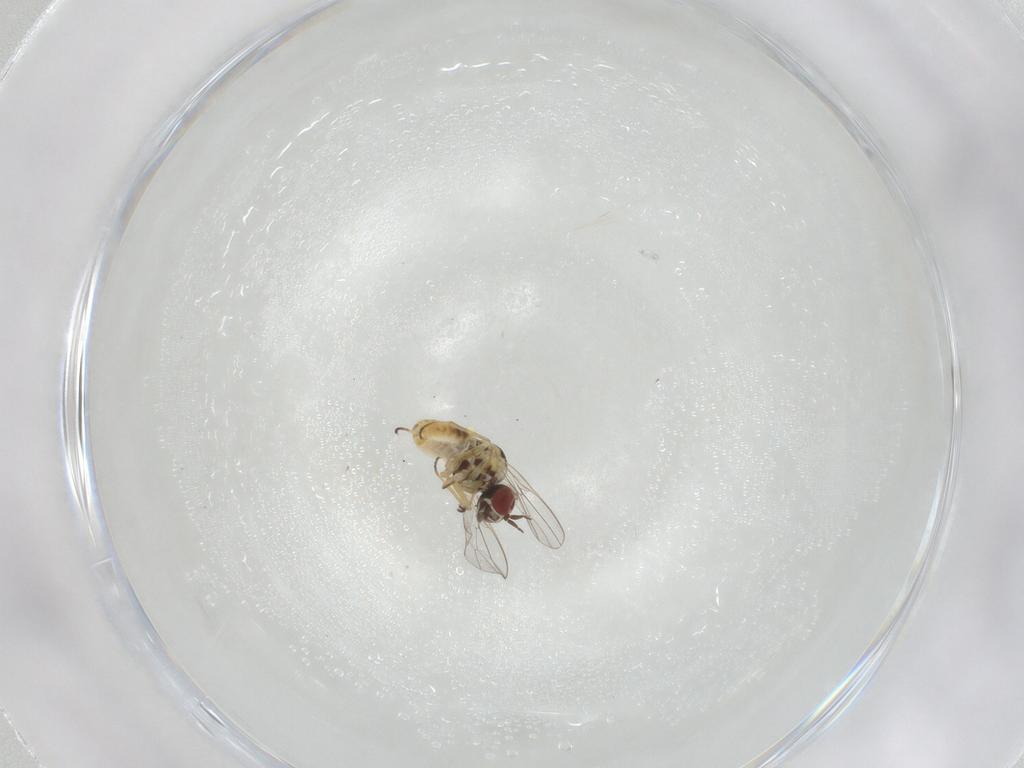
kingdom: Animalia
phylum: Arthropoda
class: Insecta
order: Diptera
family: Mythicomyiidae
